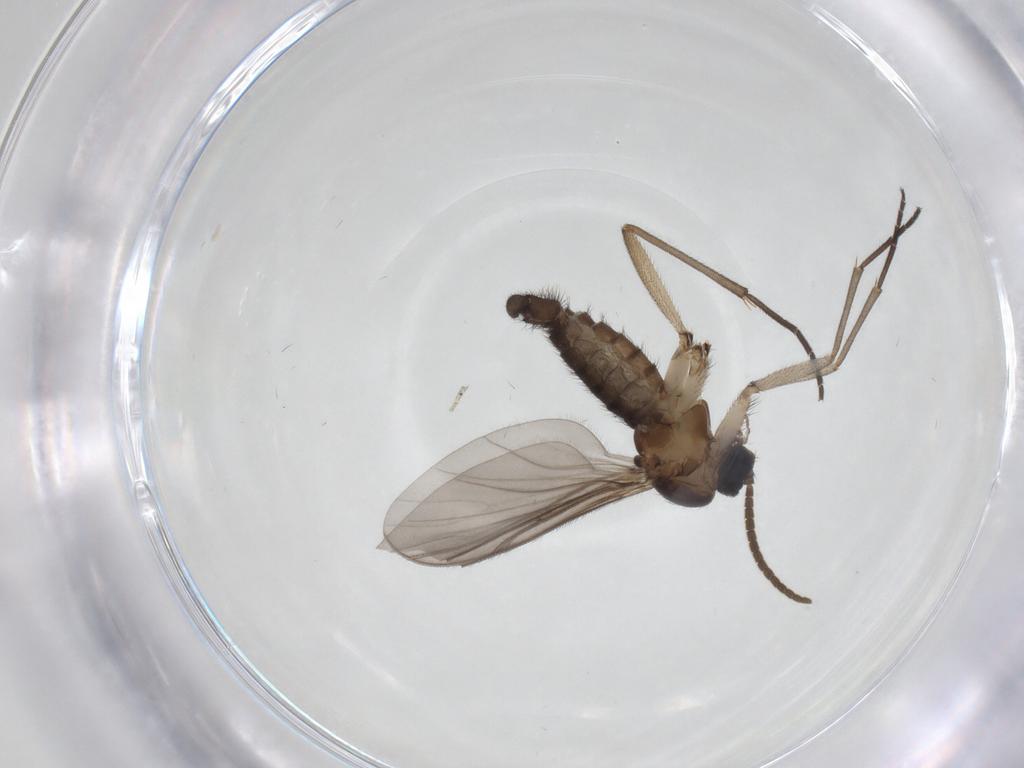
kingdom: Animalia
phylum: Arthropoda
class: Insecta
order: Diptera
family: Sciaridae
